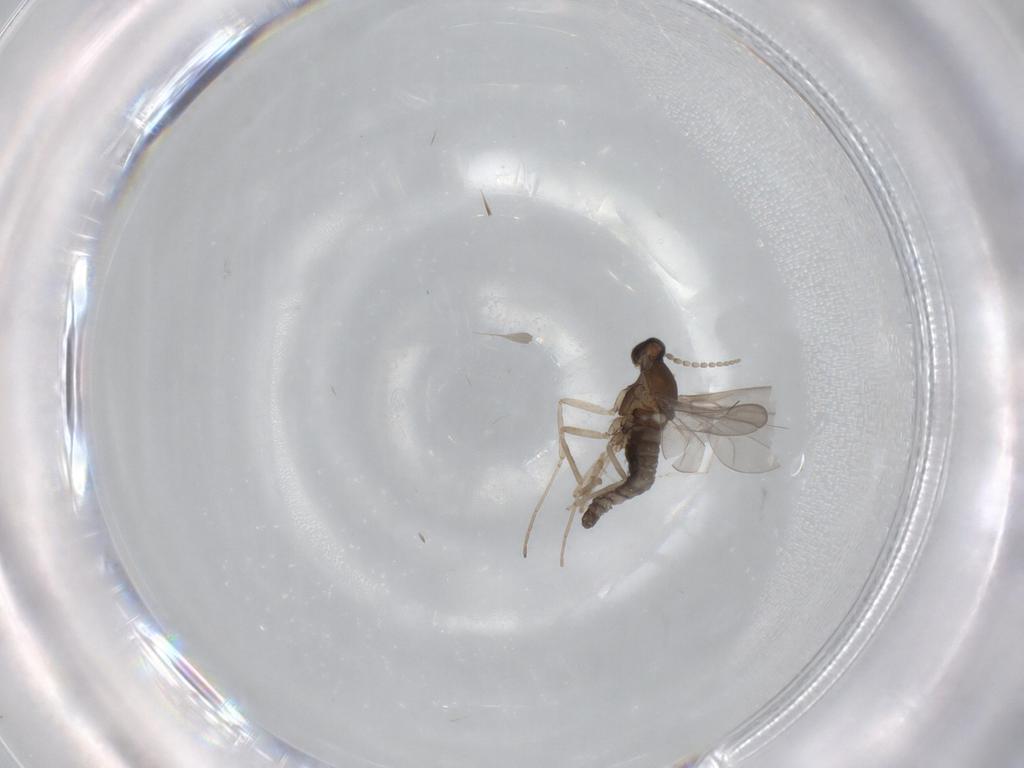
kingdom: Animalia
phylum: Arthropoda
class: Insecta
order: Diptera
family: Cecidomyiidae
